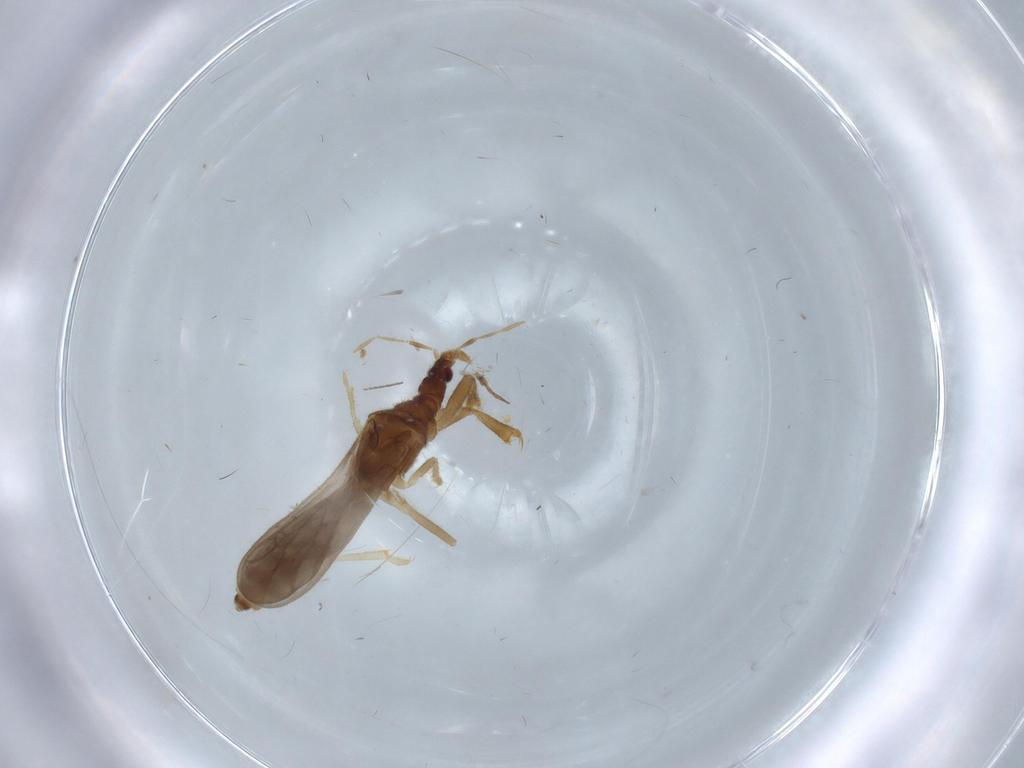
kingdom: Animalia
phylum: Arthropoda
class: Insecta
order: Hemiptera
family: Enicocephalidae
